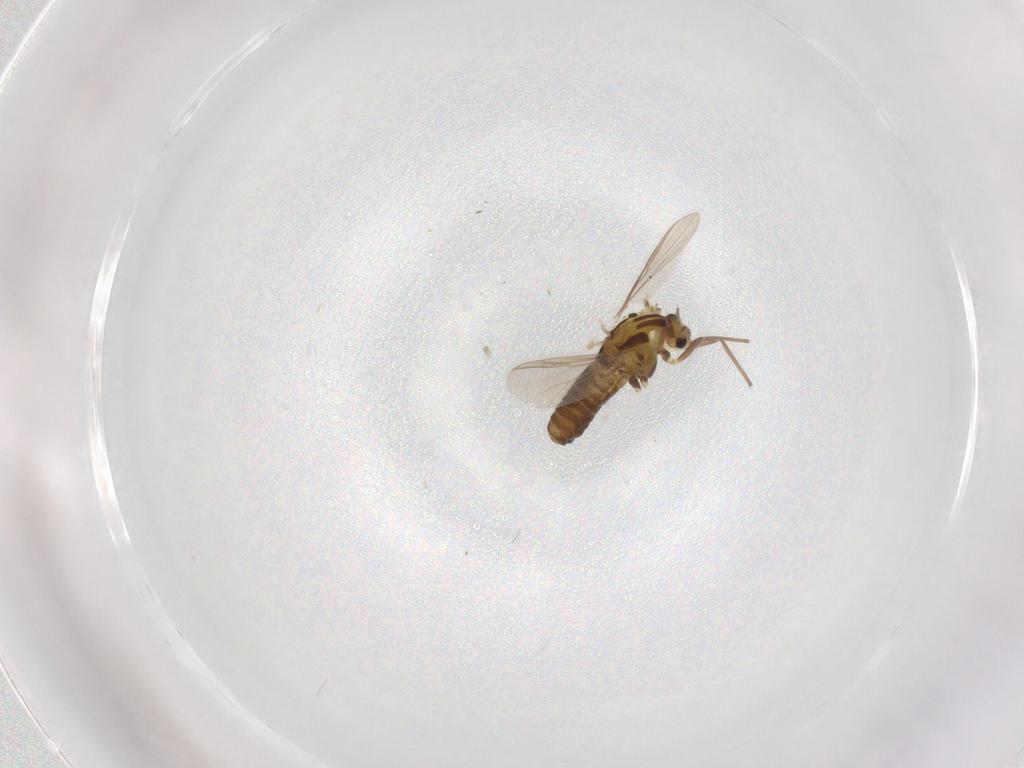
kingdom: Animalia
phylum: Arthropoda
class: Insecta
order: Diptera
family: Chironomidae
